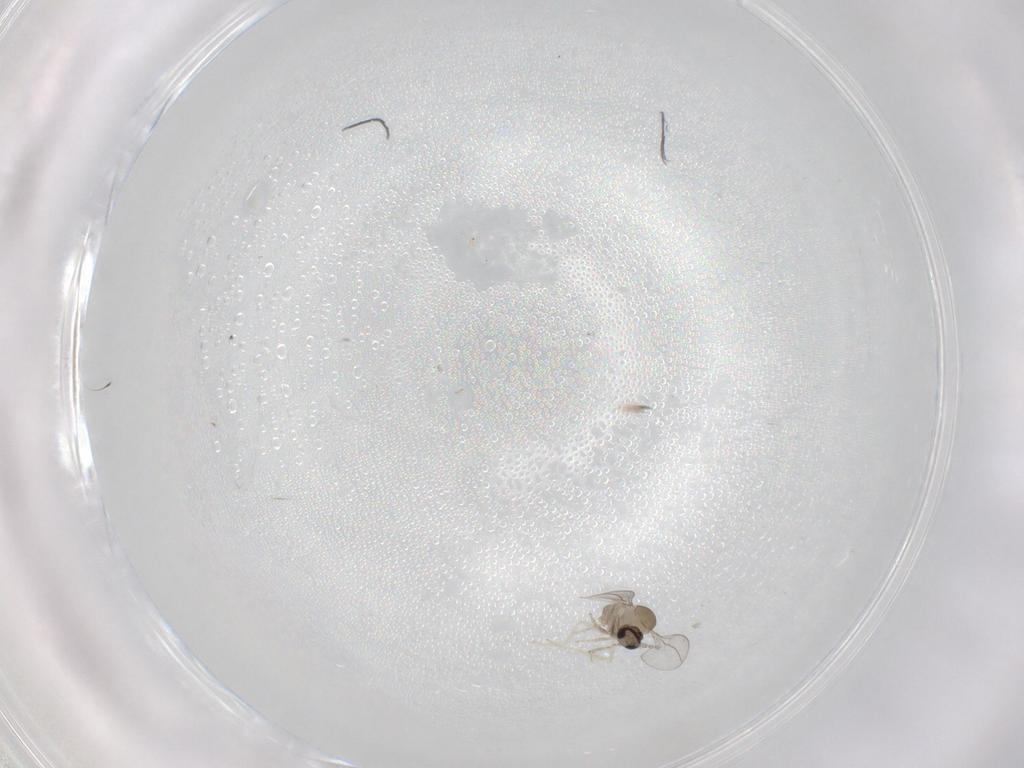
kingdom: Animalia
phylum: Arthropoda
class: Insecta
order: Diptera
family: Cecidomyiidae
